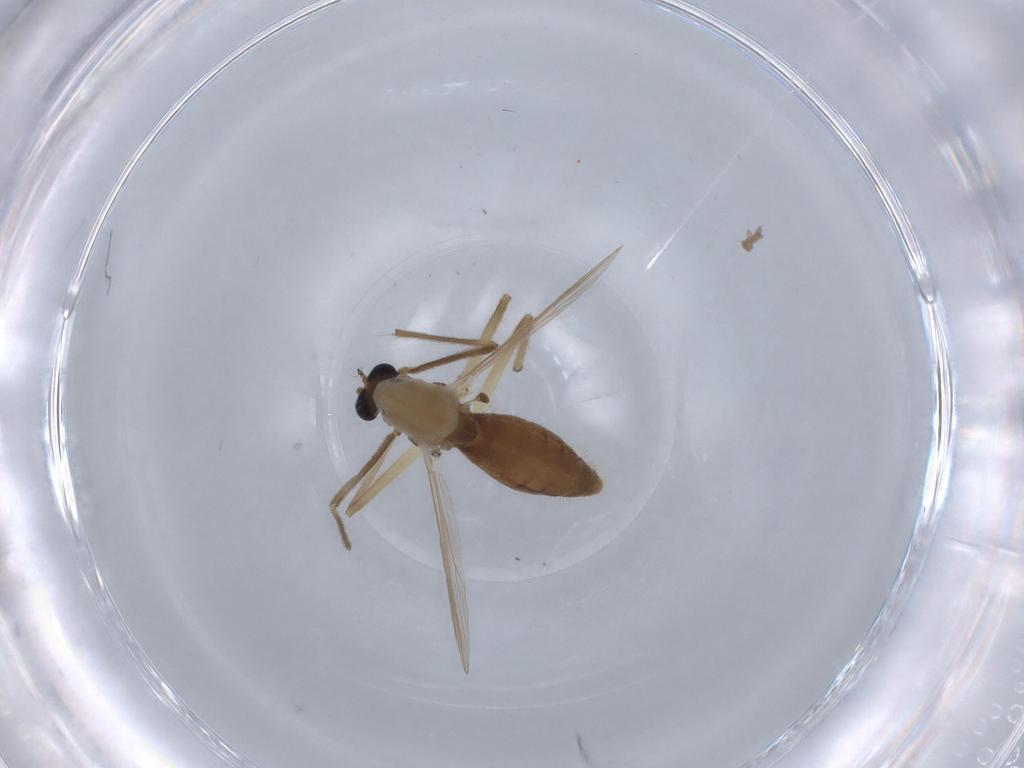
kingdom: Animalia
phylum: Arthropoda
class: Insecta
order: Diptera
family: Chironomidae
